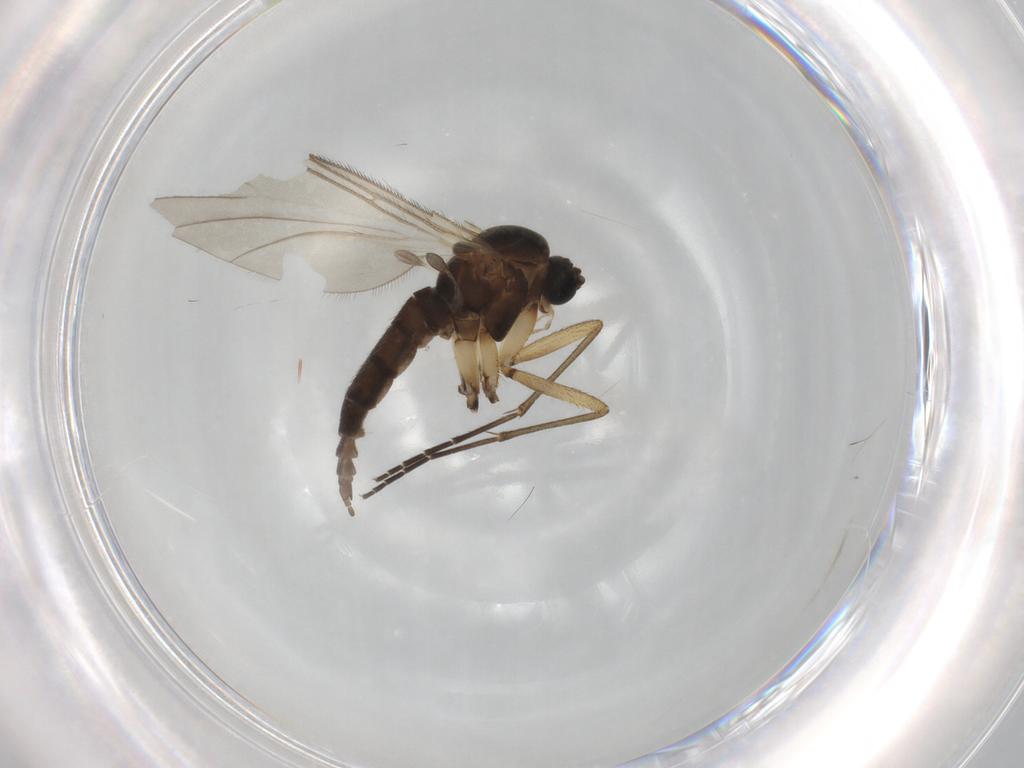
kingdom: Animalia
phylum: Arthropoda
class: Insecta
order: Diptera
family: Sciaridae
